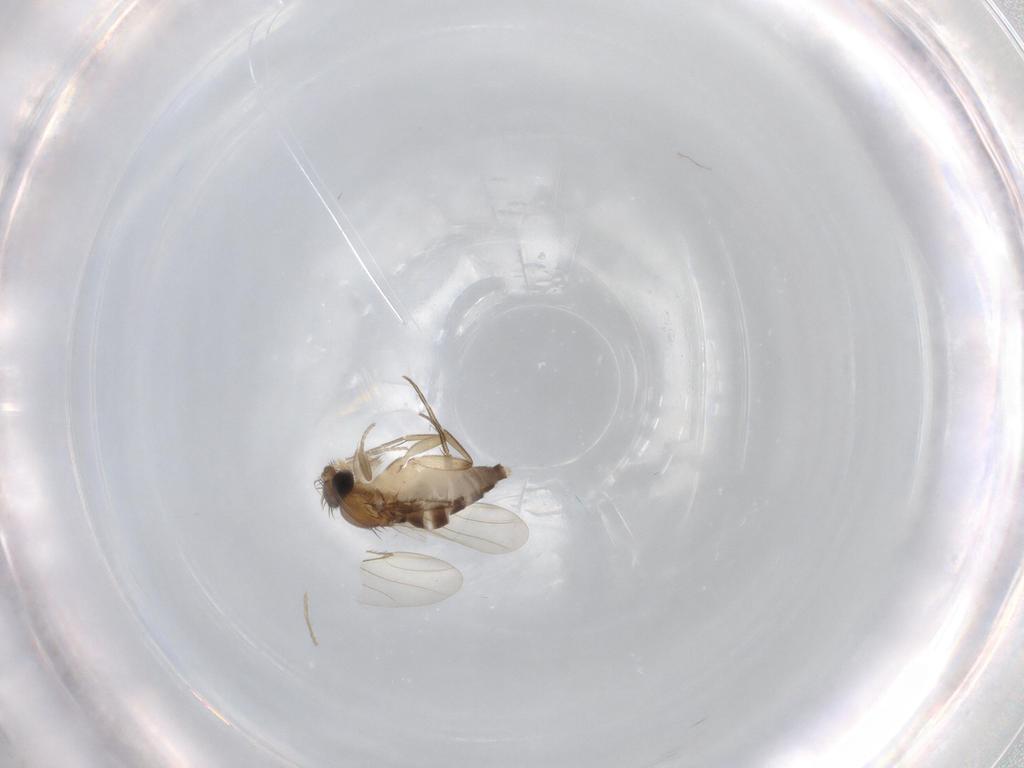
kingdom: Animalia
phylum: Arthropoda
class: Insecta
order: Diptera
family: Phoridae
